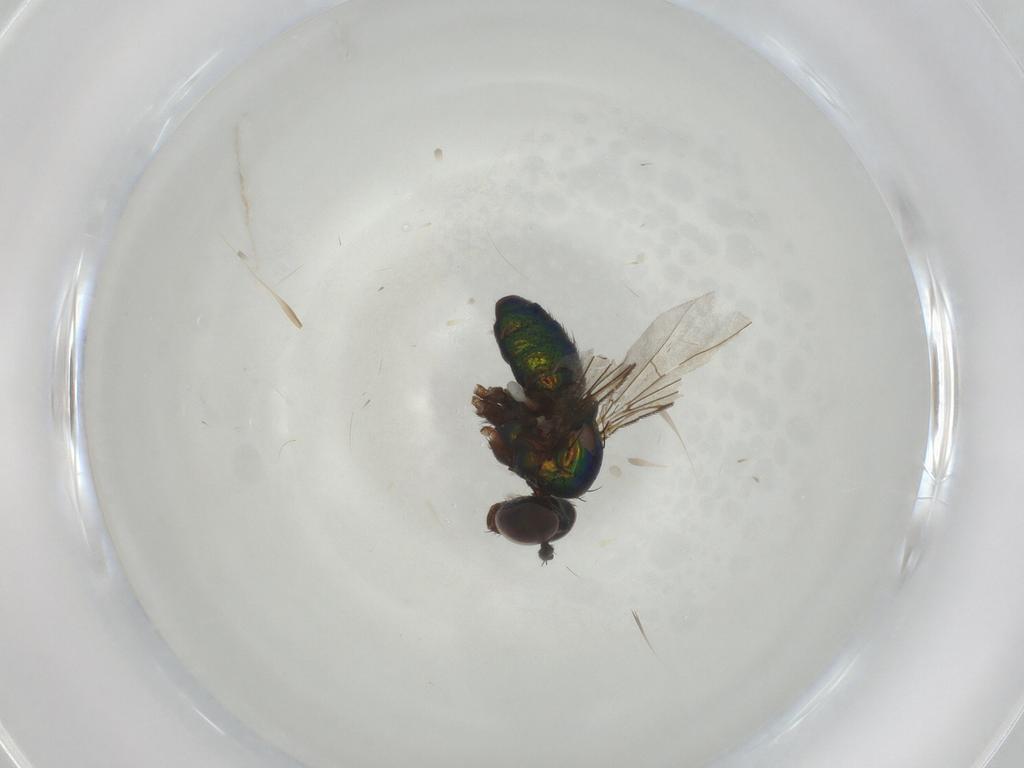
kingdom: Animalia
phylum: Arthropoda
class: Insecta
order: Diptera
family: Dolichopodidae
